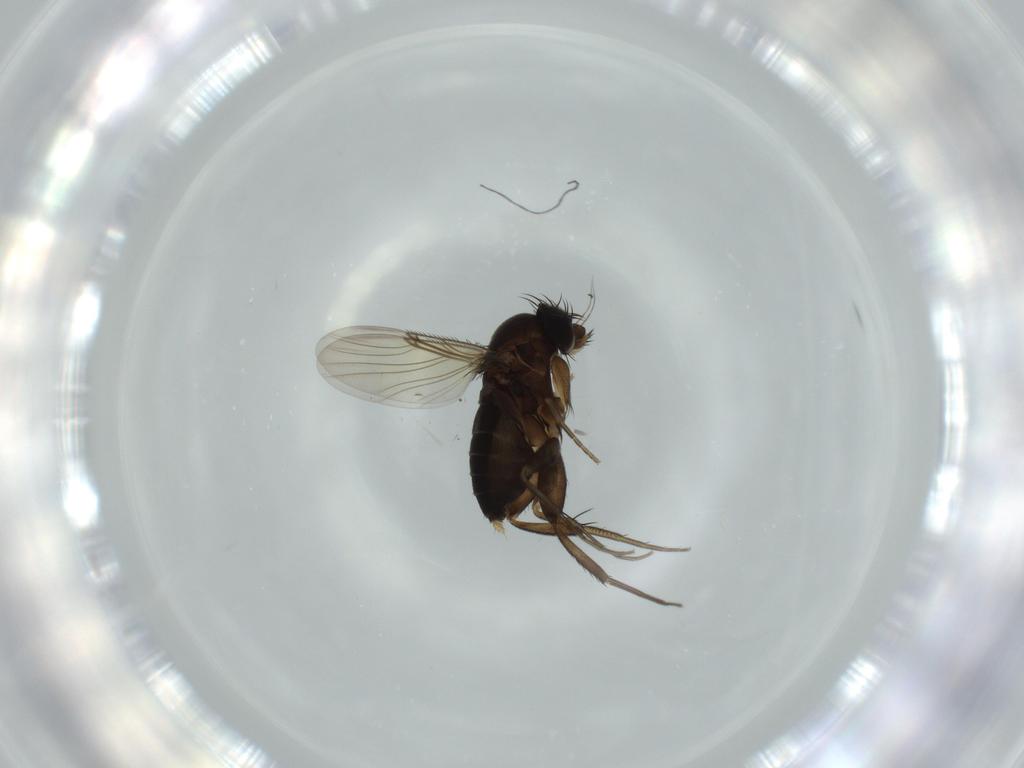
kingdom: Animalia
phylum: Arthropoda
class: Insecta
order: Diptera
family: Phoridae
